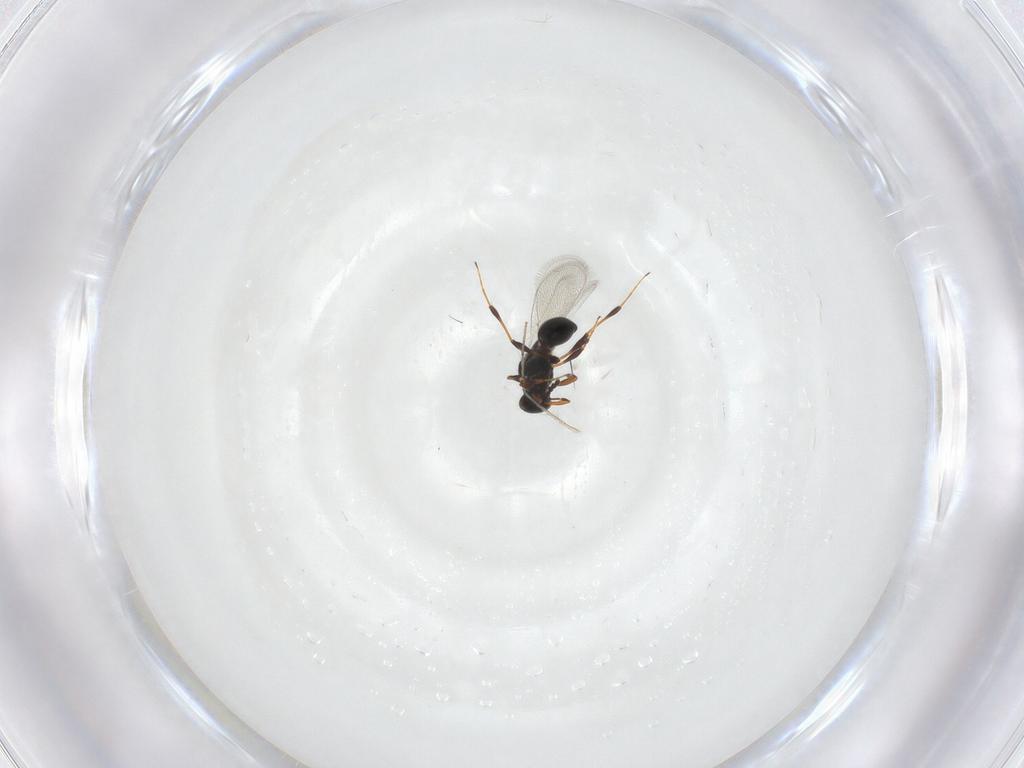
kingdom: Animalia
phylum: Arthropoda
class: Insecta
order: Hymenoptera
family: Platygastridae
